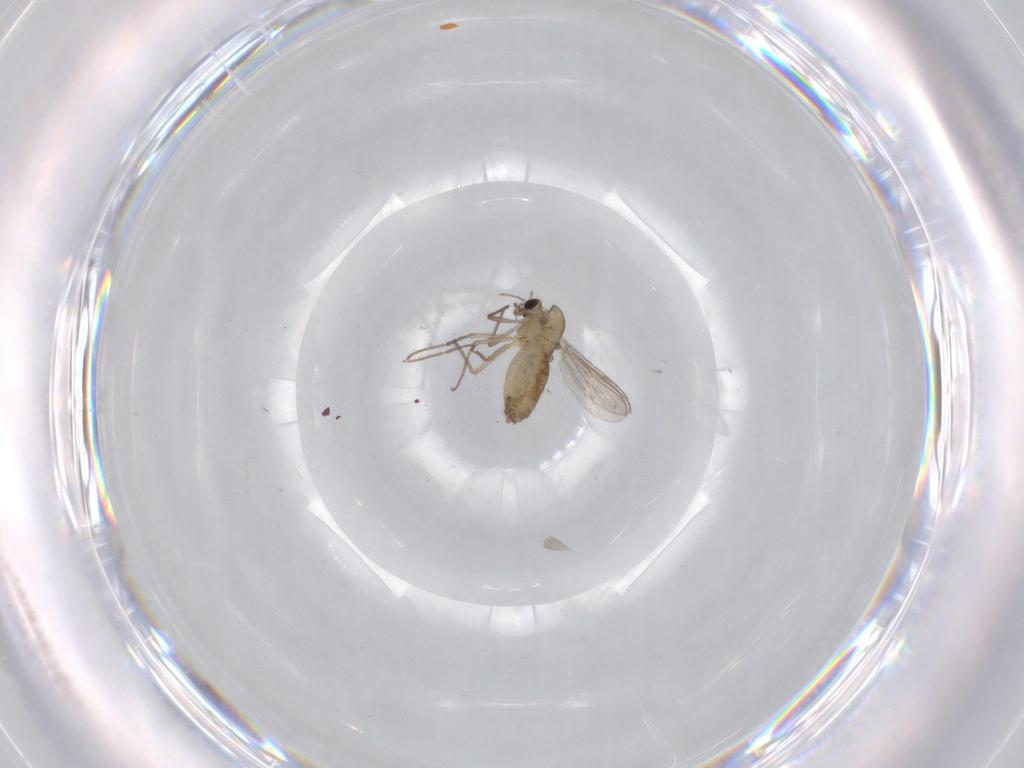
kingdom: Animalia
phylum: Arthropoda
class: Insecta
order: Diptera
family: Chironomidae
